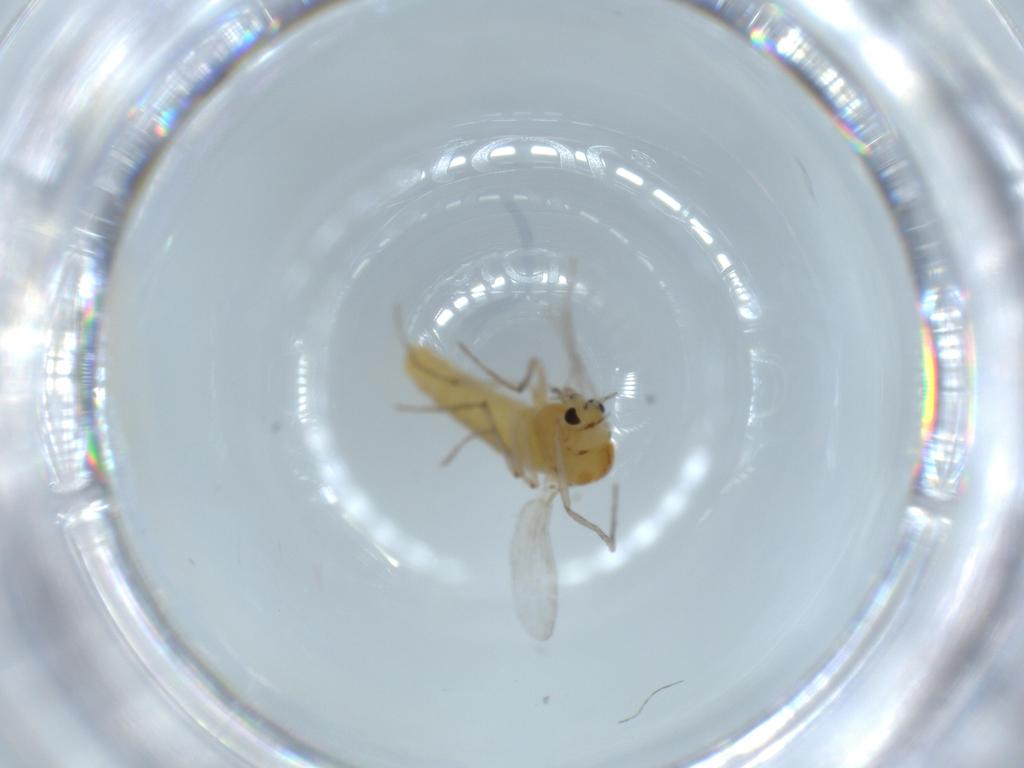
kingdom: Animalia
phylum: Arthropoda
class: Insecta
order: Diptera
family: Chironomidae
